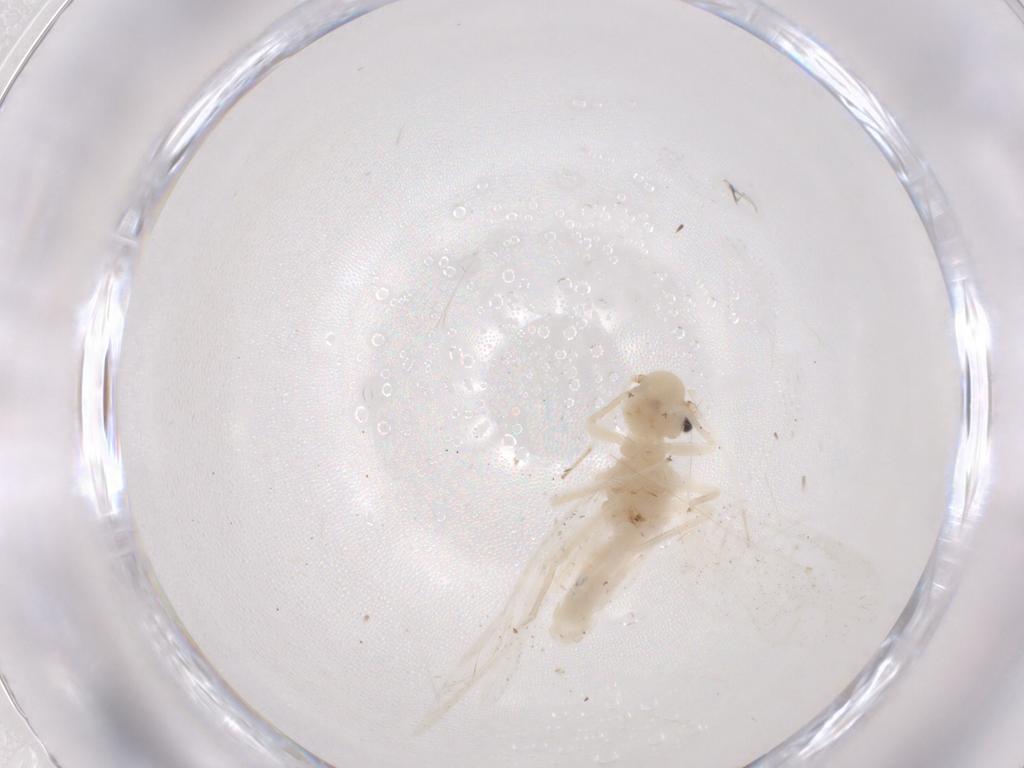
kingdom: Animalia
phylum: Arthropoda
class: Insecta
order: Psocodea
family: Caeciliusidae
